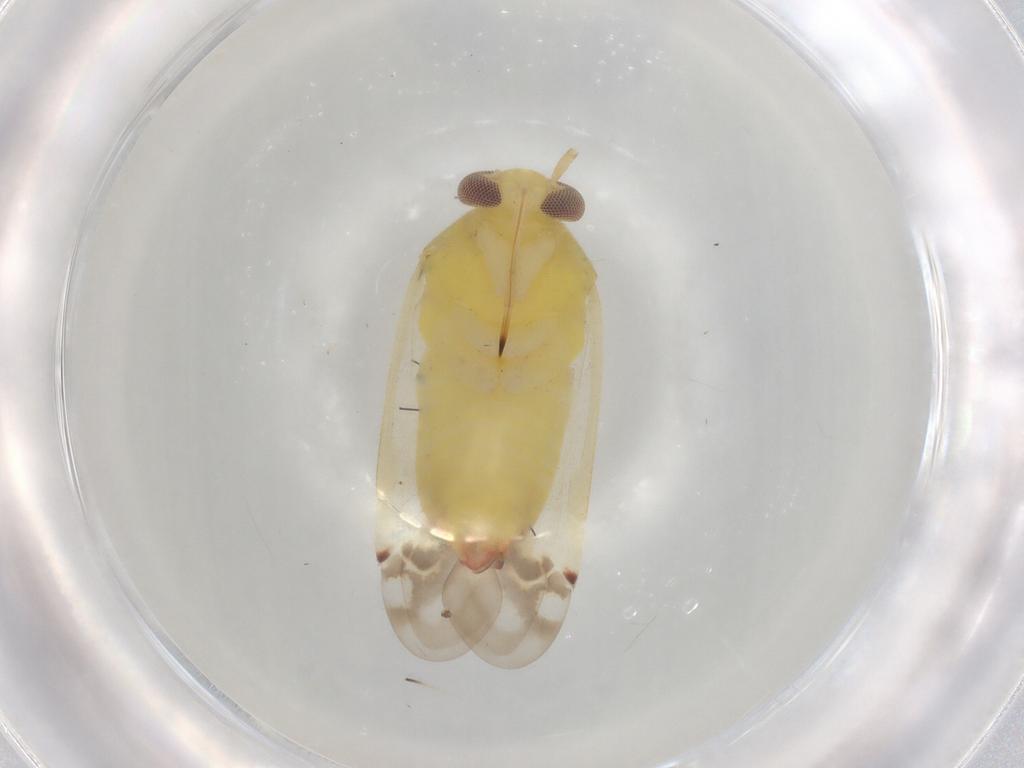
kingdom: Animalia
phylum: Arthropoda
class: Insecta
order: Hemiptera
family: Miridae
